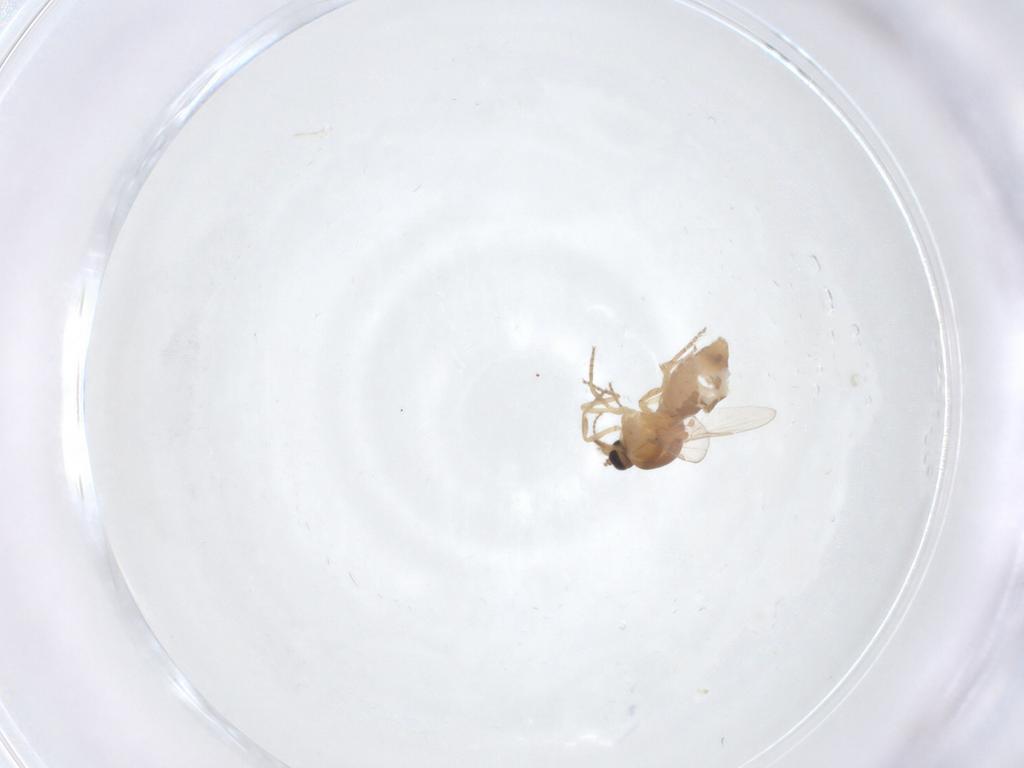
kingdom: Animalia
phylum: Arthropoda
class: Insecta
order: Diptera
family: Ceratopogonidae
